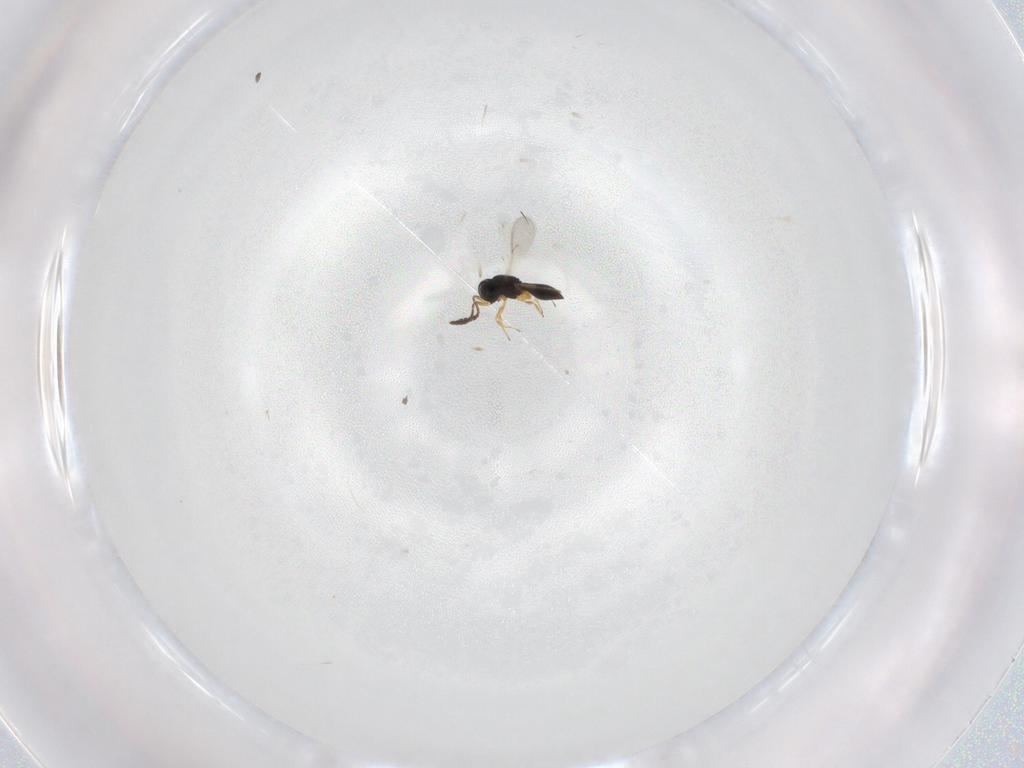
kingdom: Animalia
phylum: Arthropoda
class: Insecta
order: Hymenoptera
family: Scelionidae
